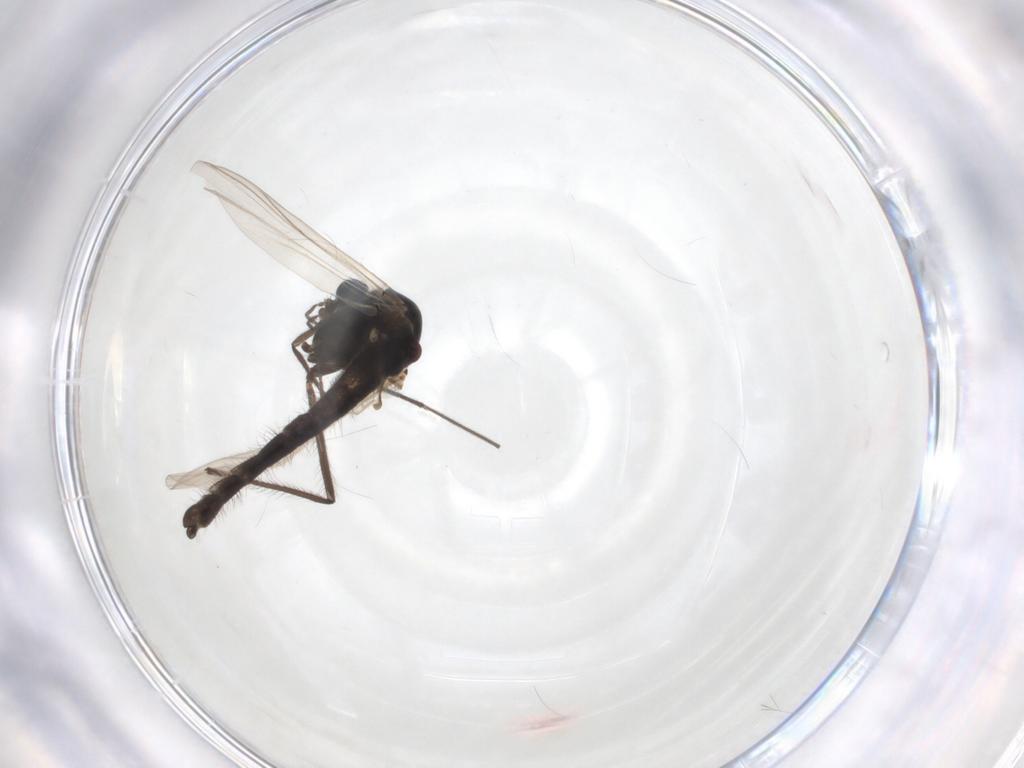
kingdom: Animalia
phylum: Arthropoda
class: Insecta
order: Diptera
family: Chironomidae
